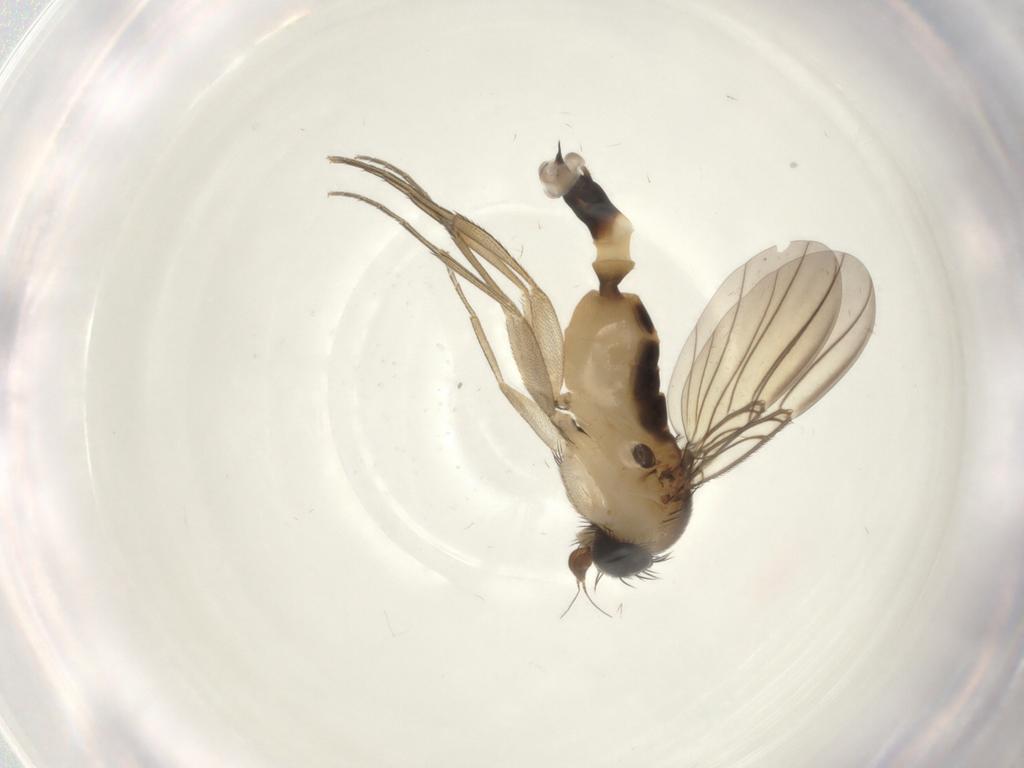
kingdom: Animalia
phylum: Arthropoda
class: Insecta
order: Diptera
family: Phoridae
